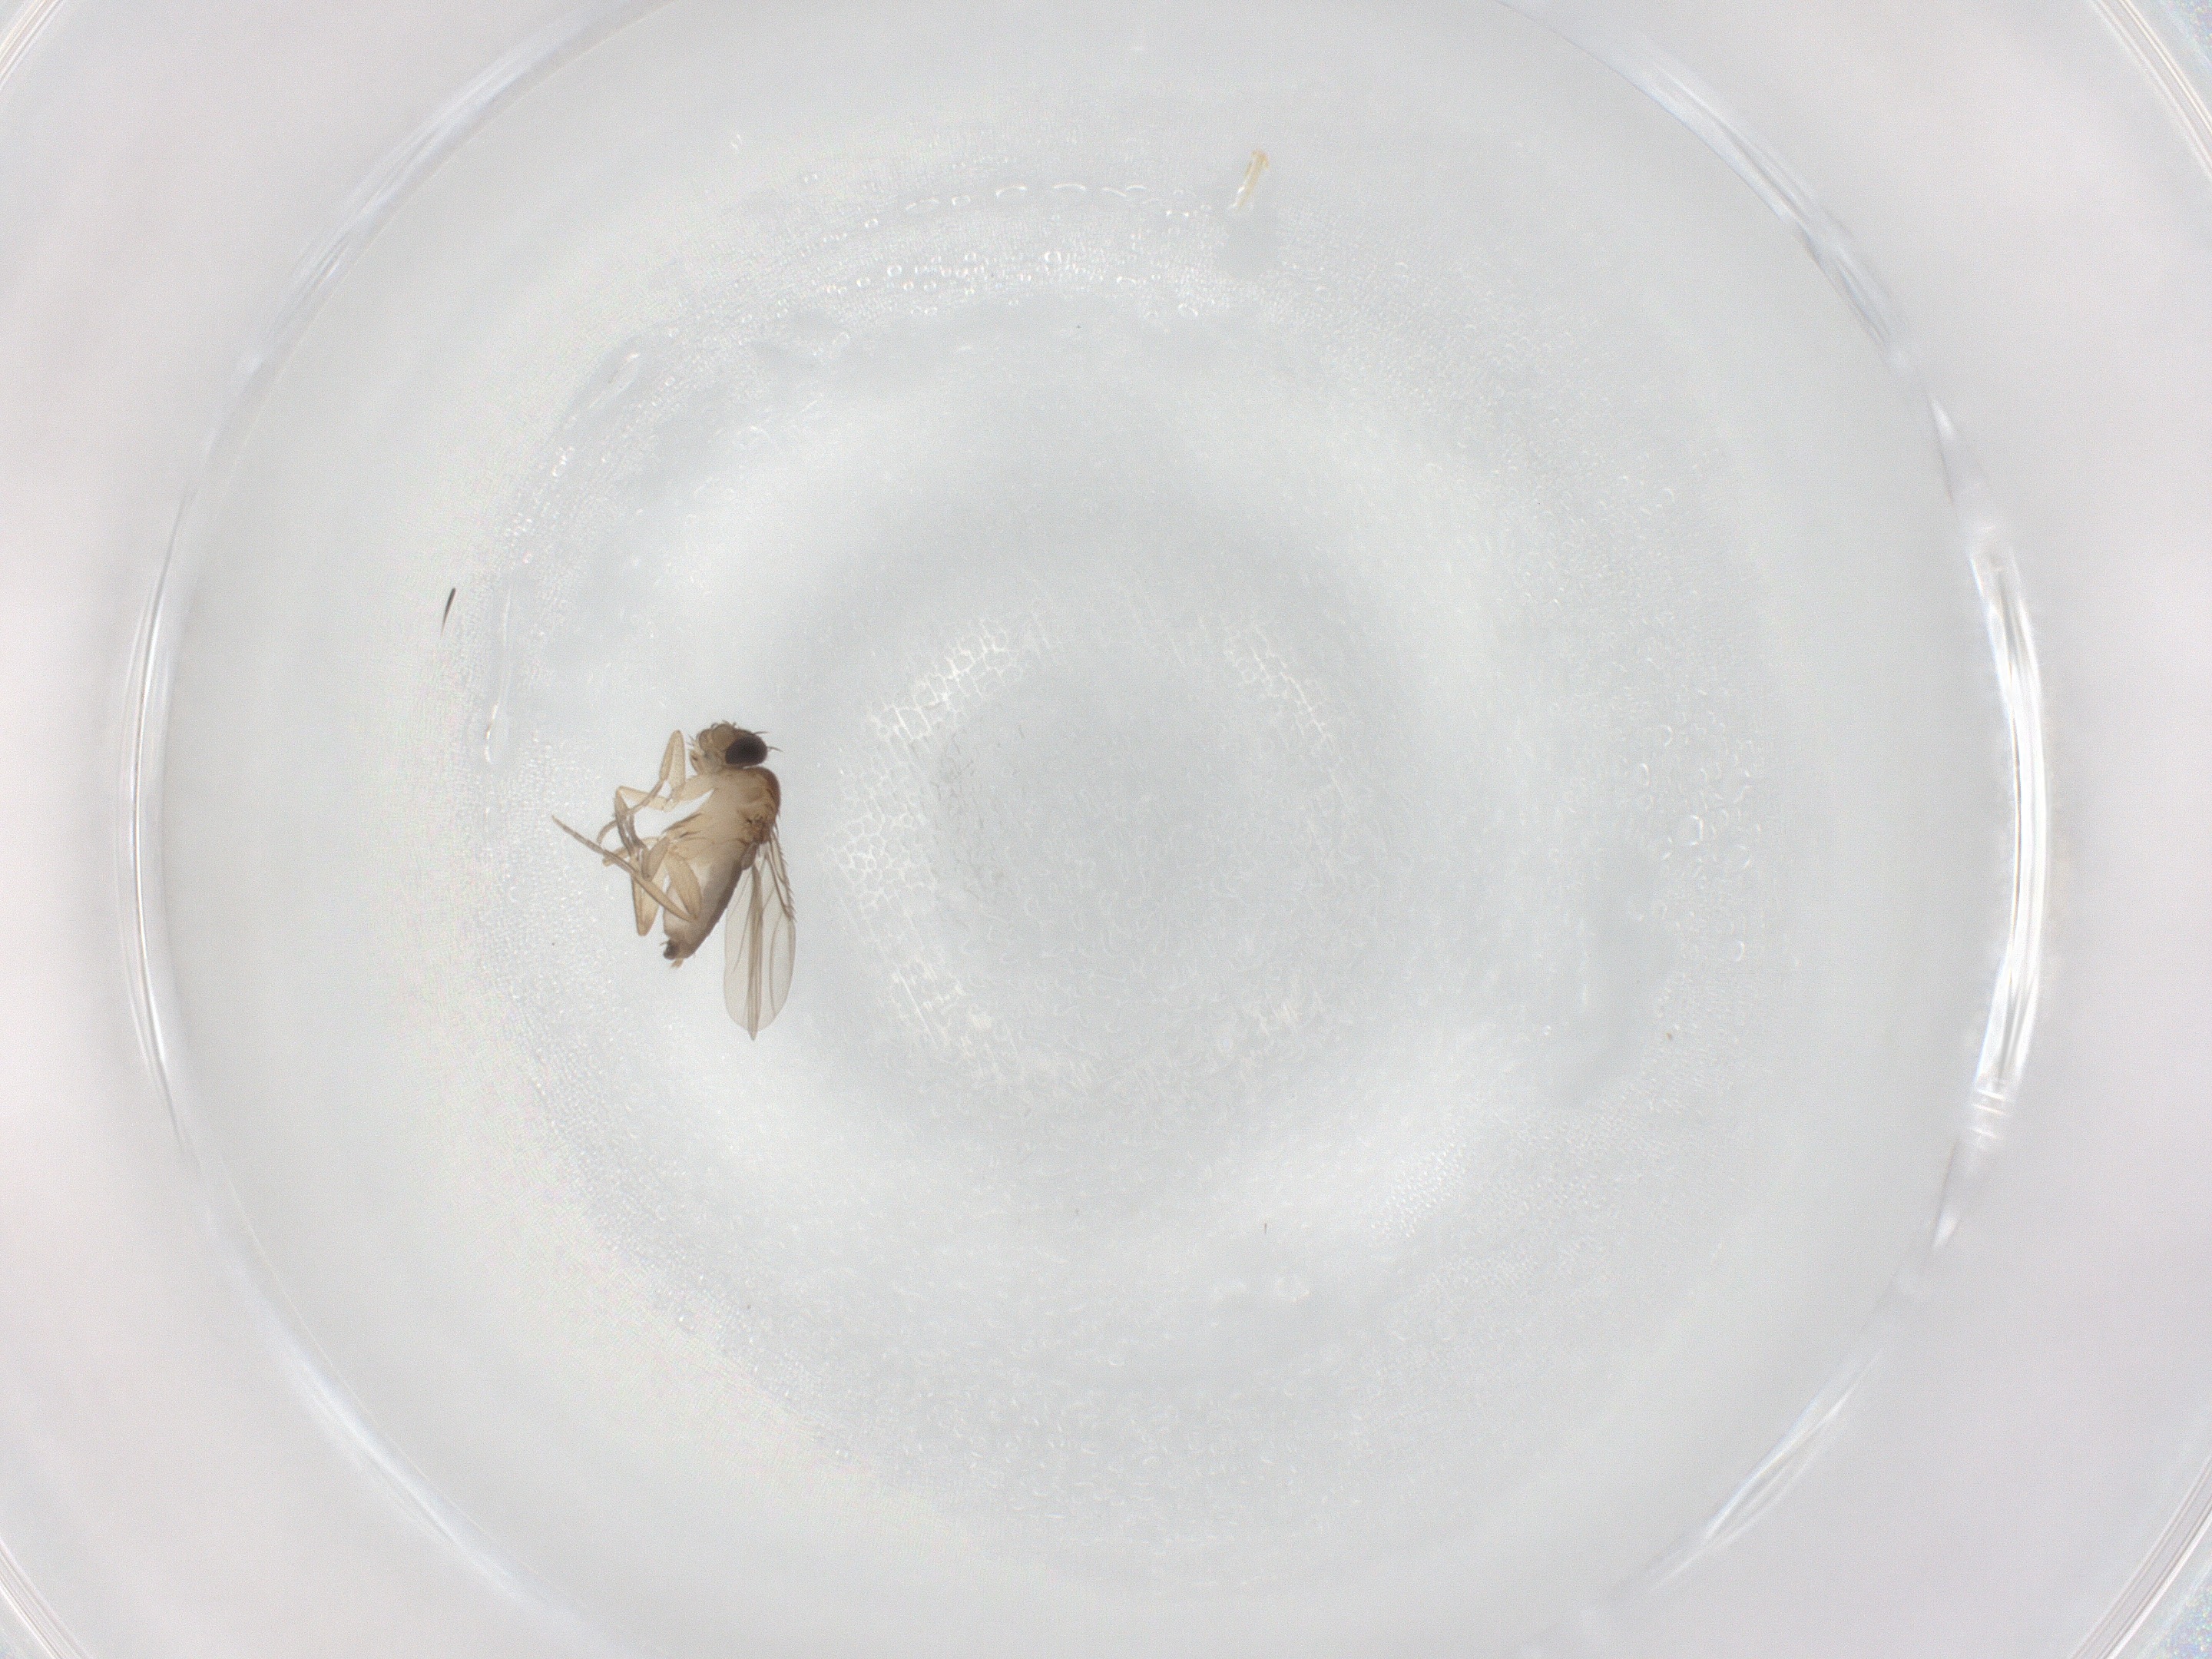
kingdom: Animalia
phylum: Arthropoda
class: Insecta
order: Diptera
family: Phoridae
